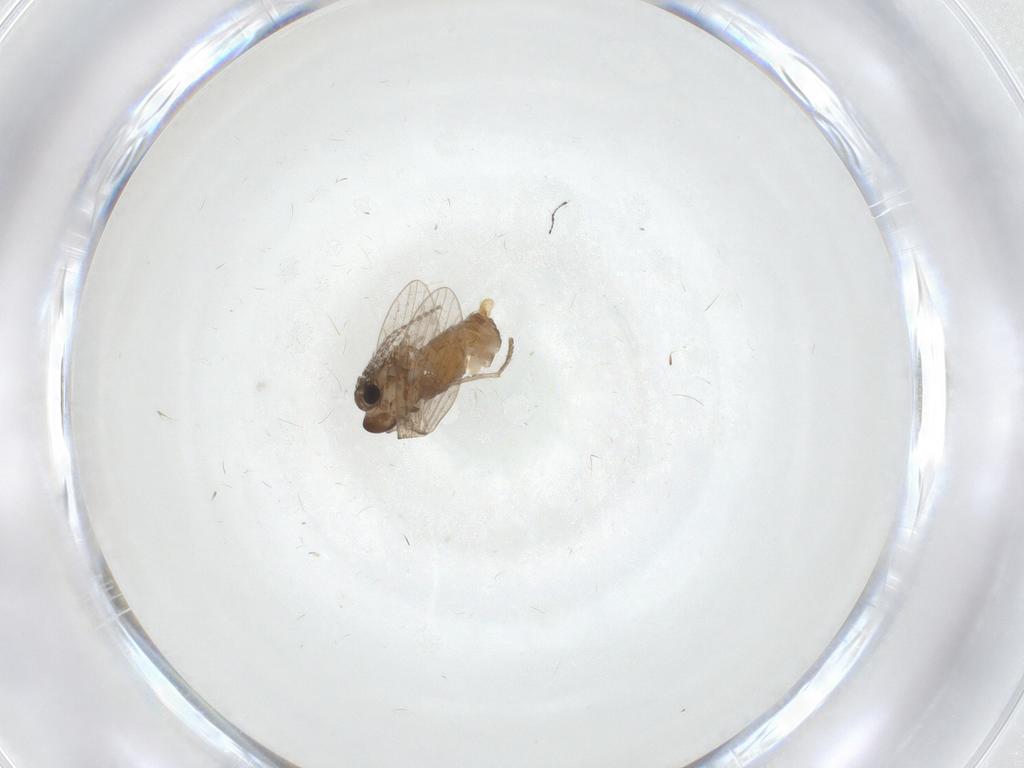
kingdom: Animalia
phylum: Arthropoda
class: Insecta
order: Diptera
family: Psychodidae
